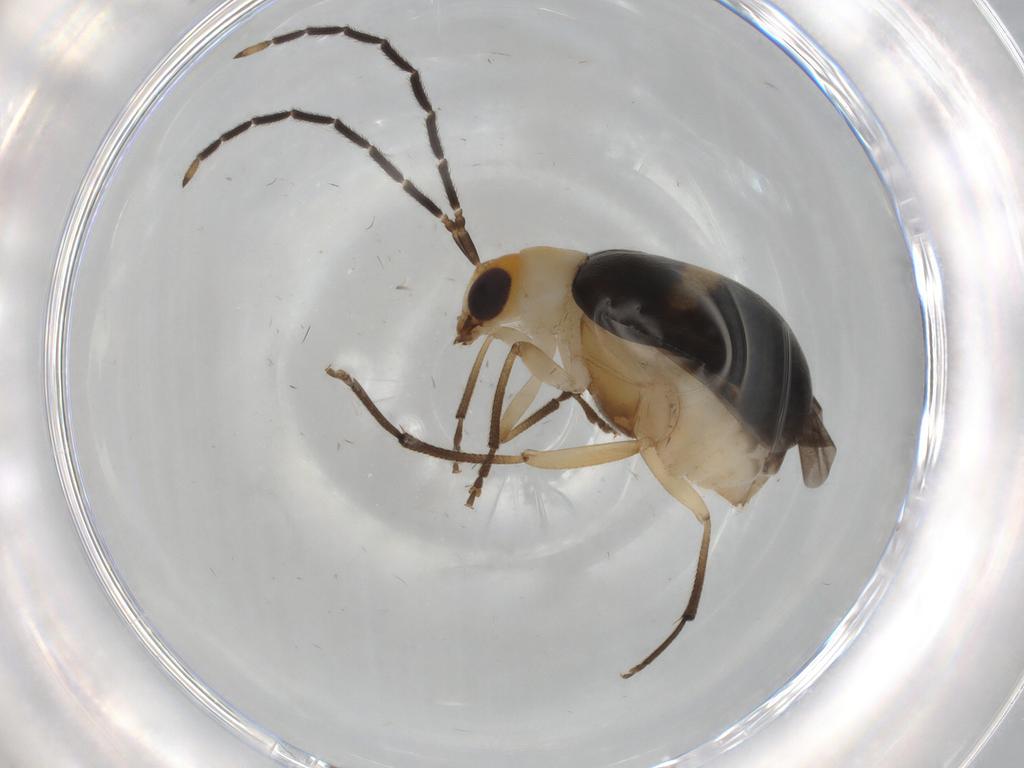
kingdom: Animalia
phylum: Arthropoda
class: Insecta
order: Coleoptera
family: Chrysomelidae
